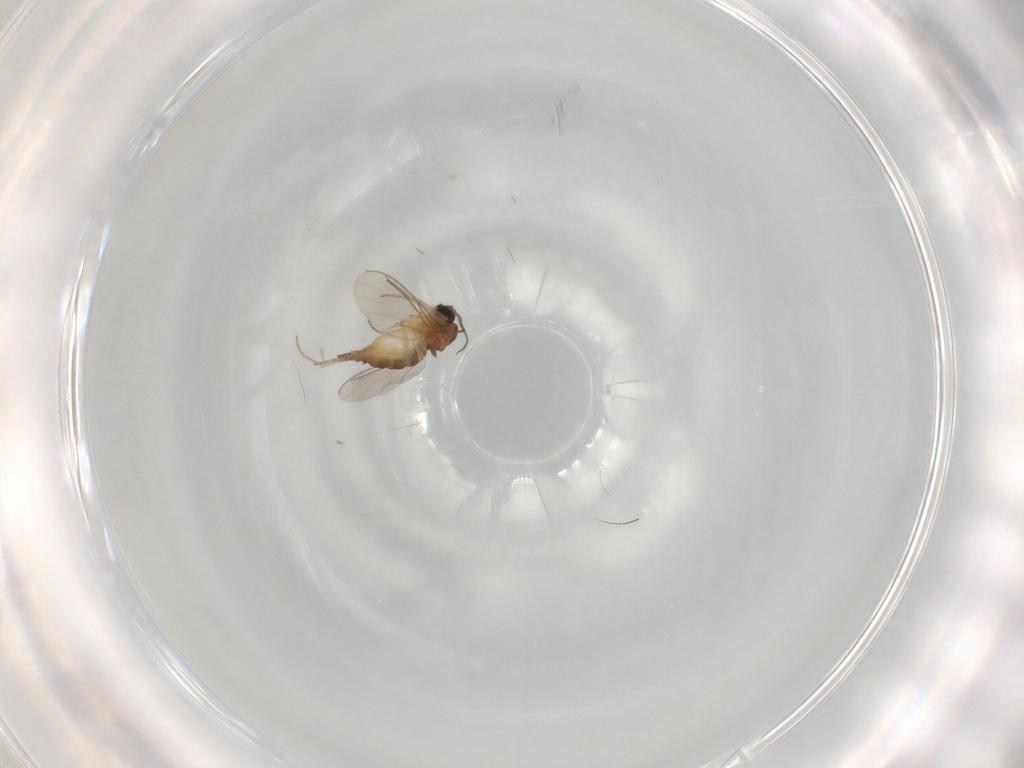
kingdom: Animalia
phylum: Arthropoda
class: Insecta
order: Diptera
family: Sciaridae
